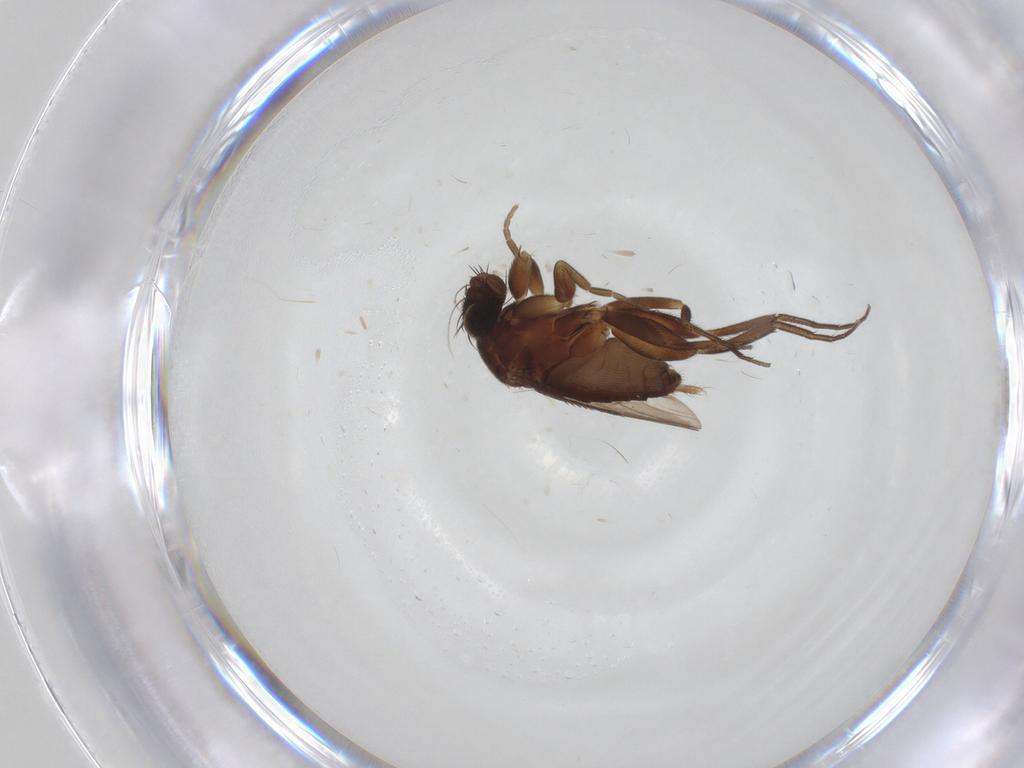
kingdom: Animalia
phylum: Arthropoda
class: Insecta
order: Diptera
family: Phoridae
